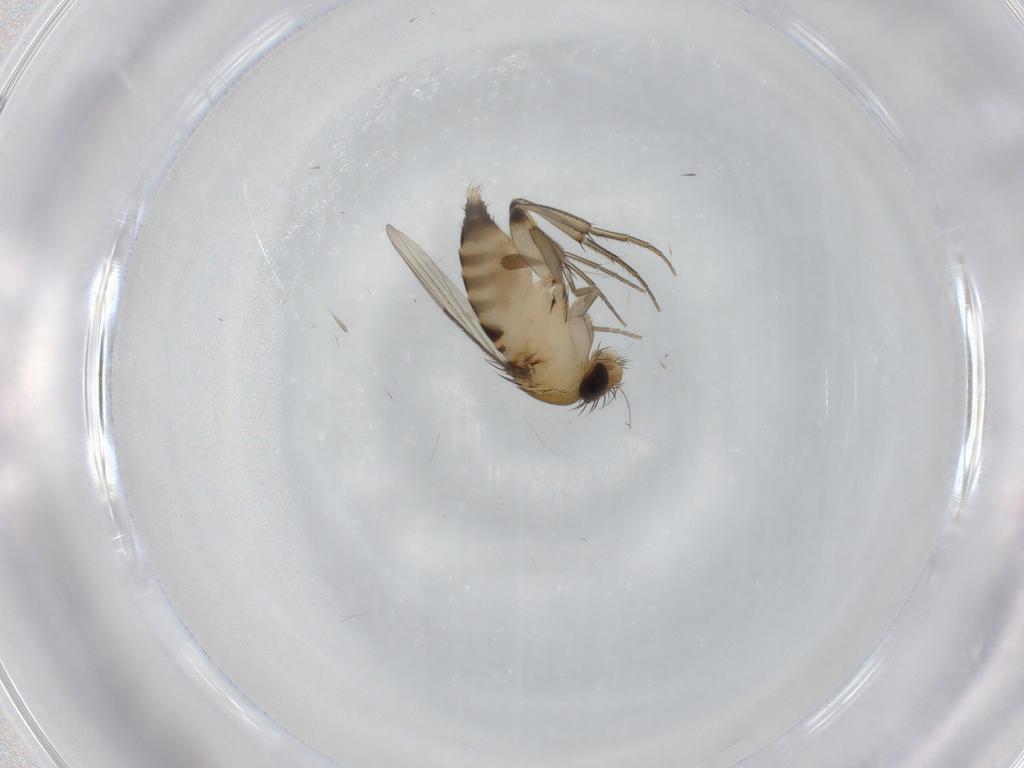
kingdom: Animalia
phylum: Arthropoda
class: Insecta
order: Diptera
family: Phoridae
